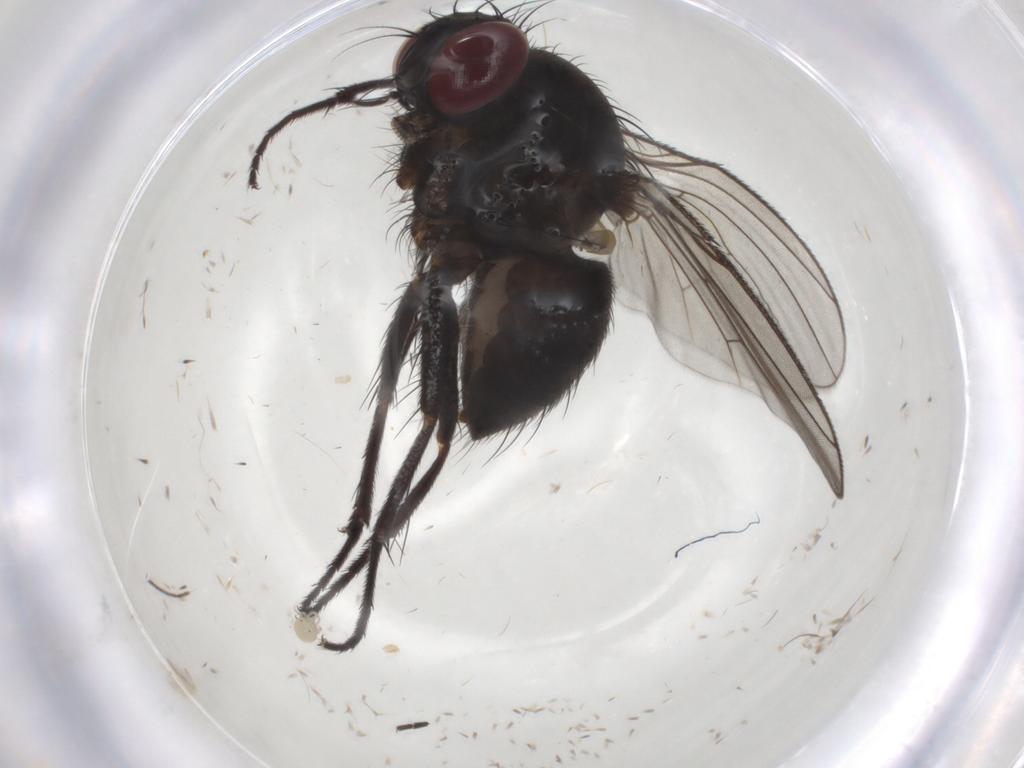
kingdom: Animalia
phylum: Arthropoda
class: Insecta
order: Diptera
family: Muscidae
